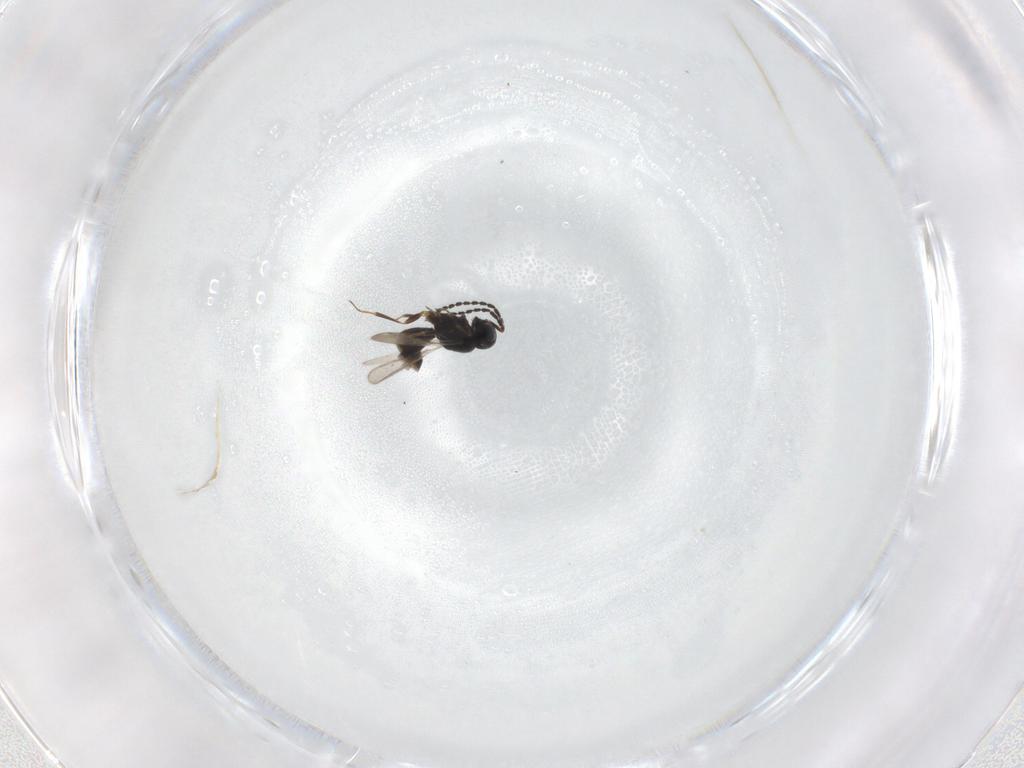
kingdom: Animalia
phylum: Arthropoda
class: Insecta
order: Hymenoptera
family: Scelionidae
